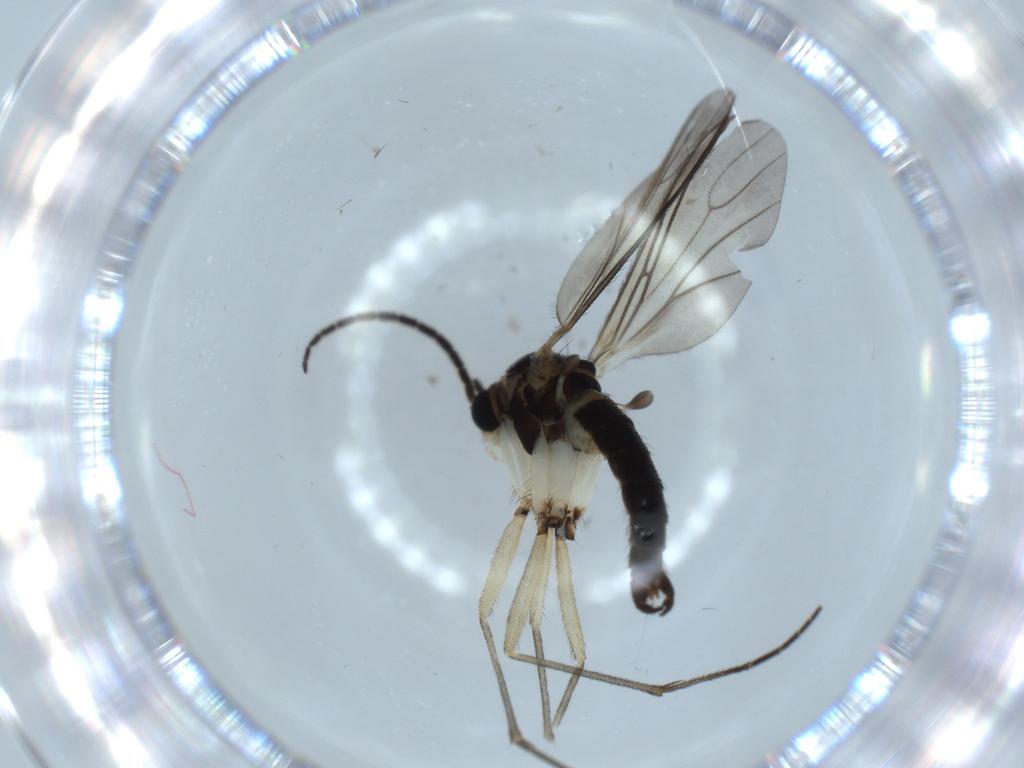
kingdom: Animalia
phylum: Arthropoda
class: Insecta
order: Diptera
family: Sciaridae
